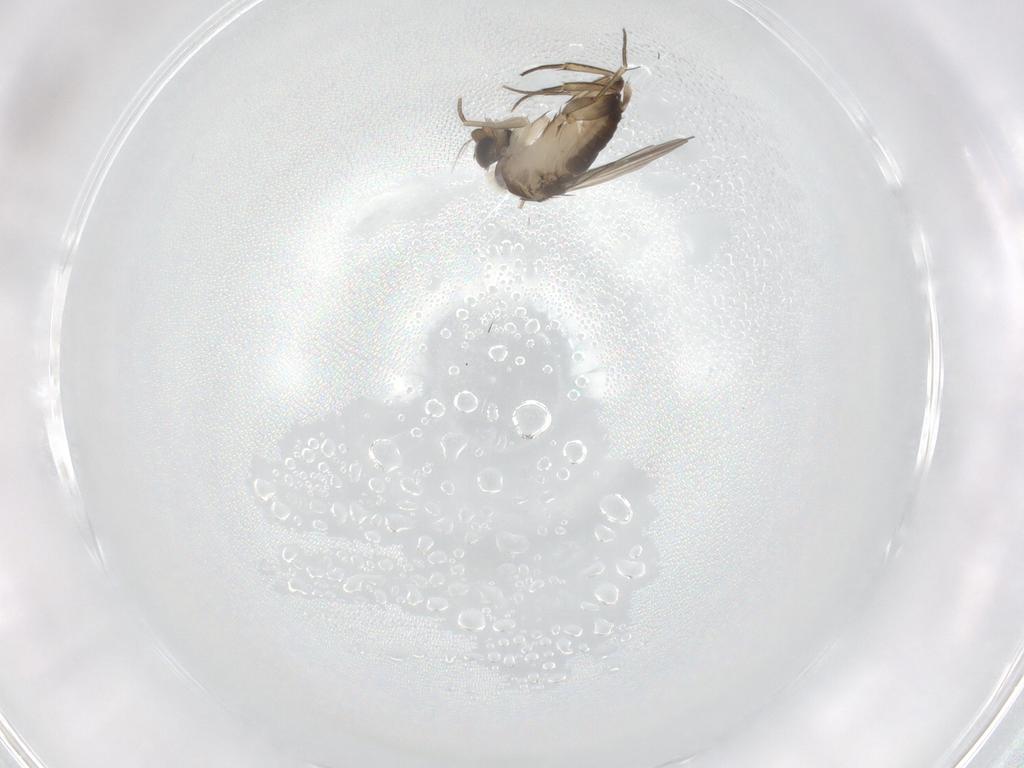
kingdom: Animalia
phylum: Arthropoda
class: Insecta
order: Diptera
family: Phoridae
